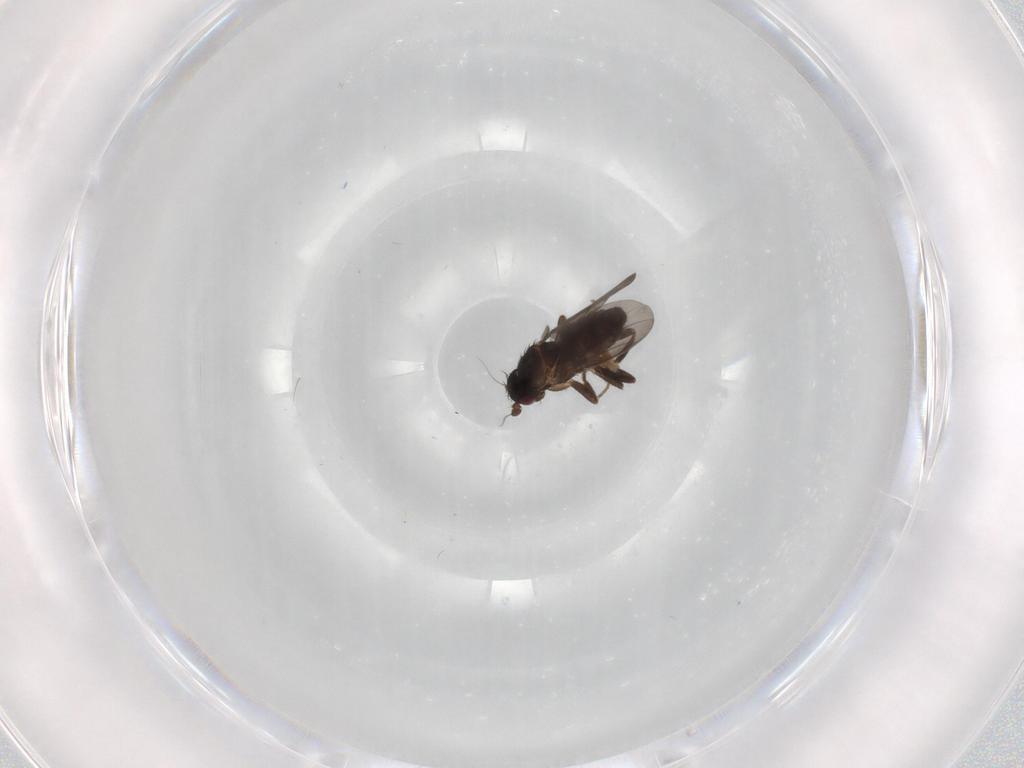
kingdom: Animalia
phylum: Arthropoda
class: Insecta
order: Diptera
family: Sphaeroceridae
